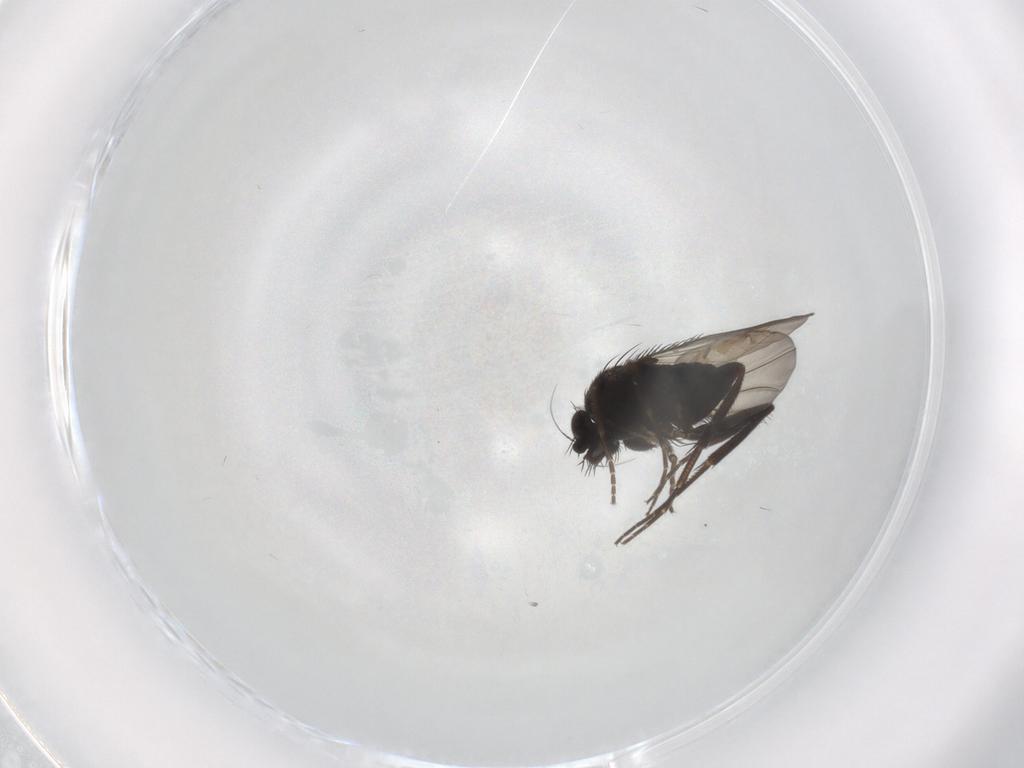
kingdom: Animalia
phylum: Arthropoda
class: Insecta
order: Diptera
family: Phoridae
